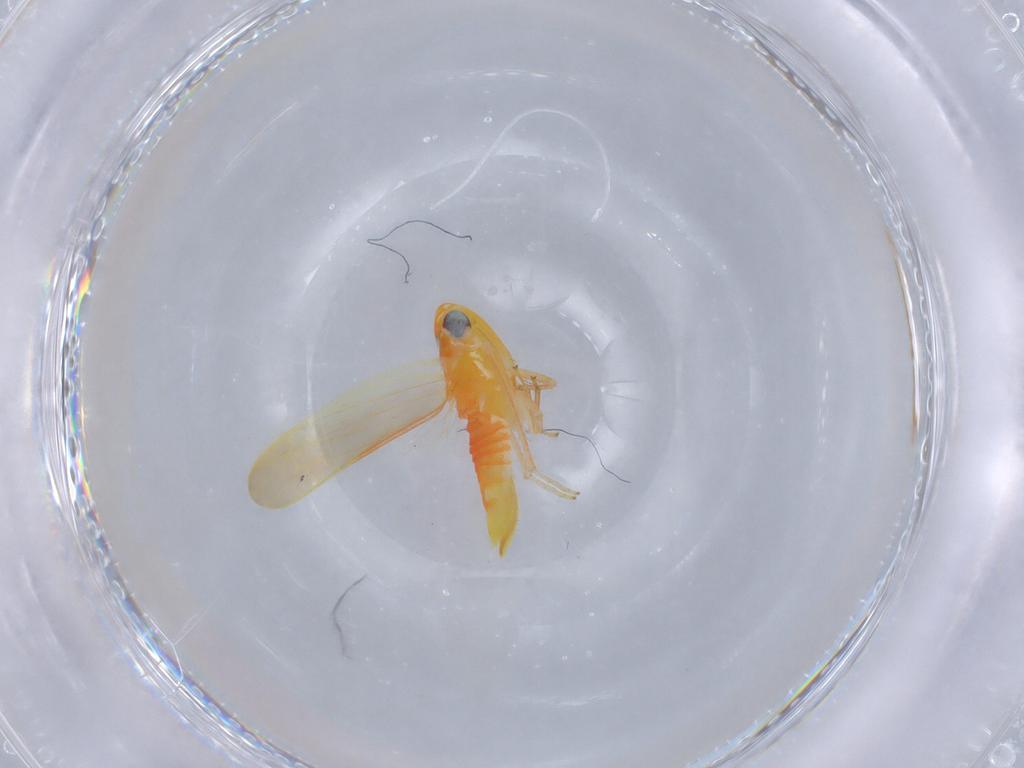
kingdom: Animalia
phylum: Arthropoda
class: Insecta
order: Hemiptera
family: Cicadellidae
